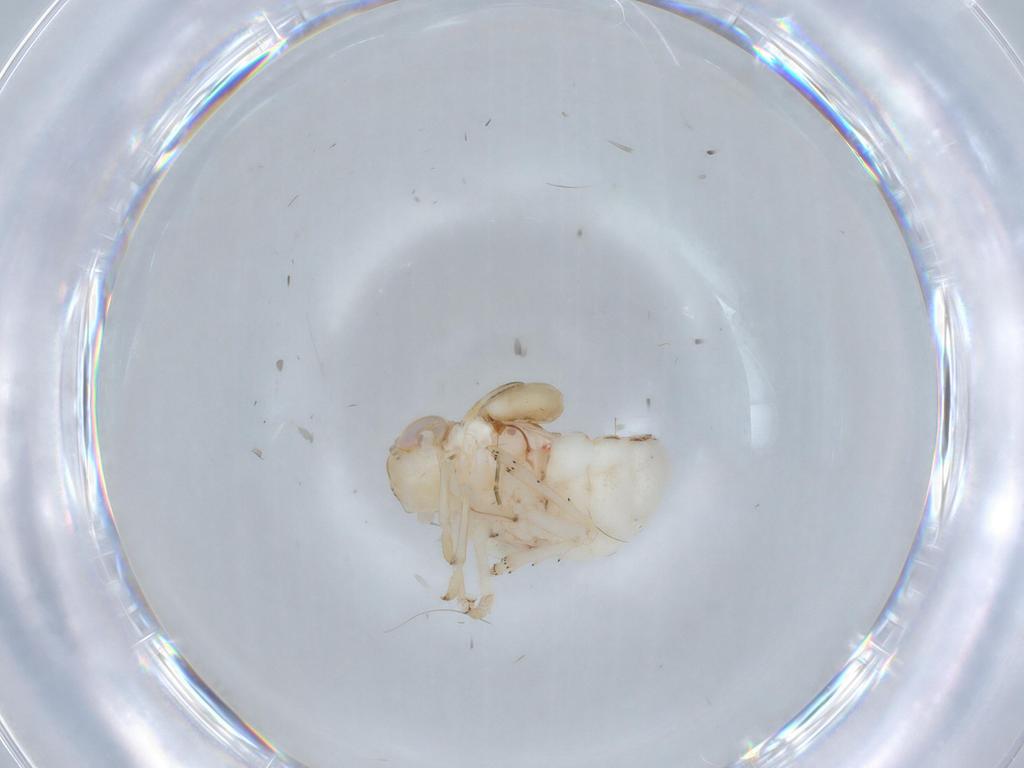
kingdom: Animalia
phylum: Arthropoda
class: Insecta
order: Hemiptera
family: Nogodinidae
